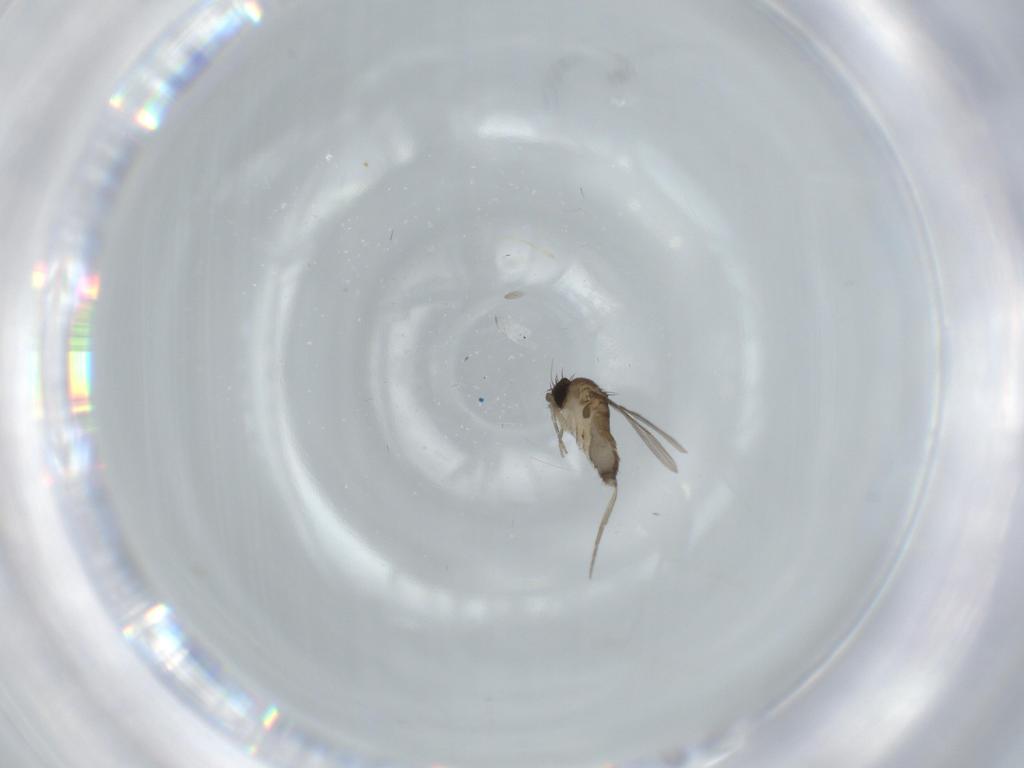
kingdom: Animalia
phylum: Arthropoda
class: Insecta
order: Diptera
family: Phoridae
